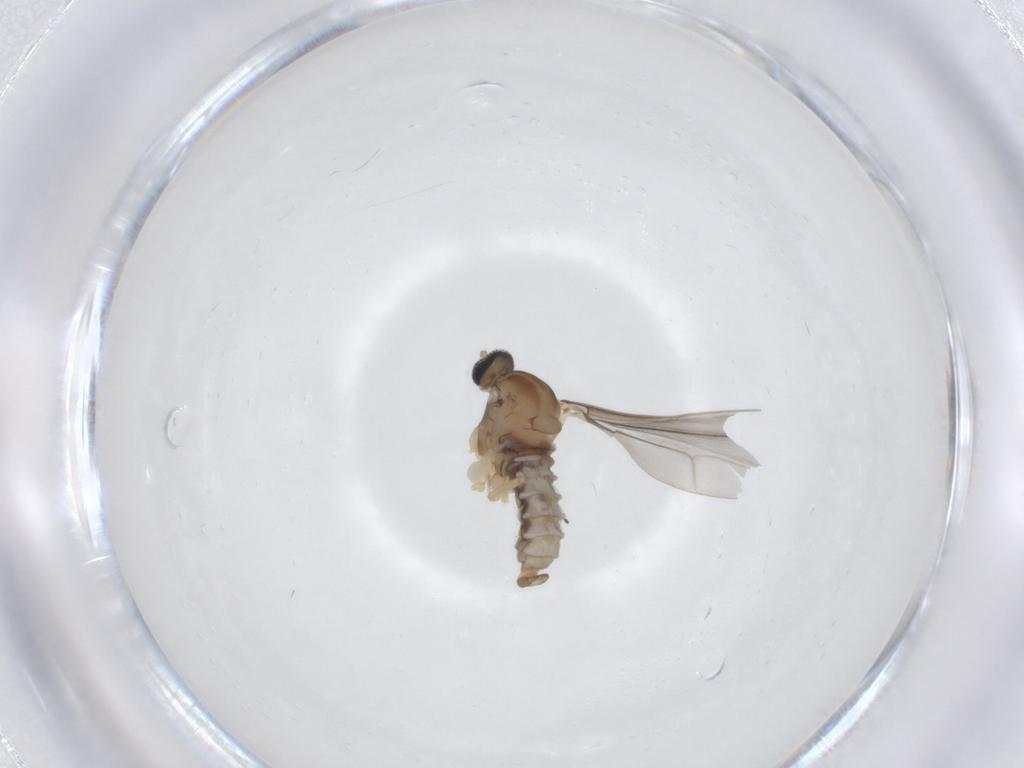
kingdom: Animalia
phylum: Arthropoda
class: Insecta
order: Diptera
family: Cecidomyiidae
